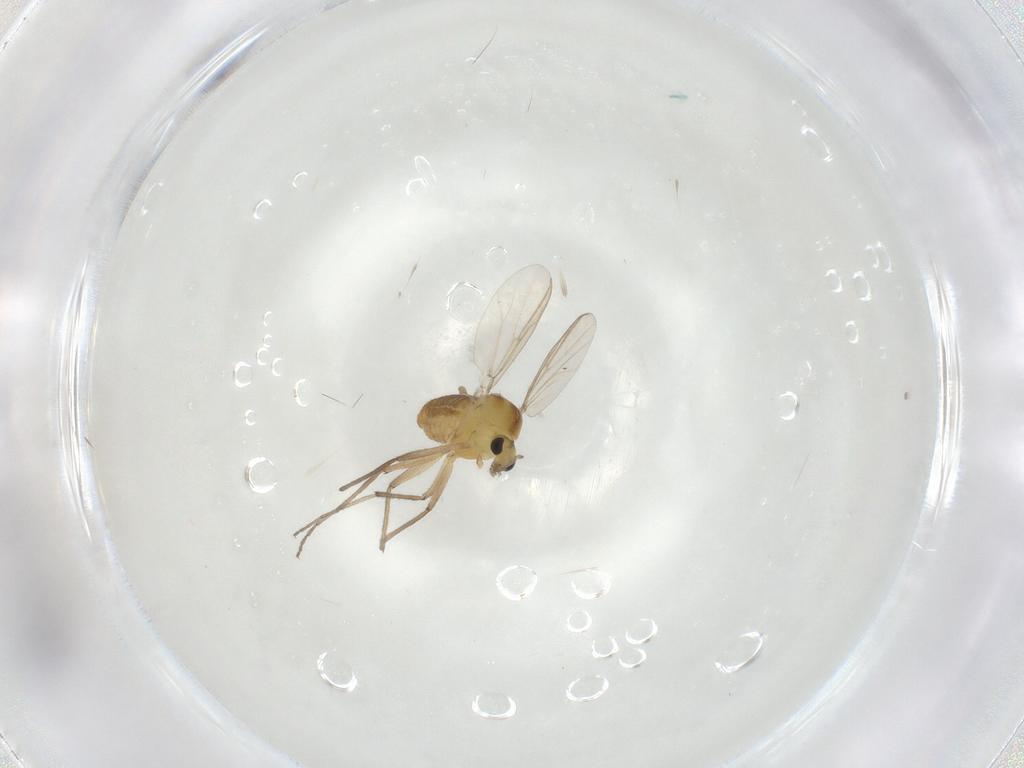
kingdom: Animalia
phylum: Arthropoda
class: Insecta
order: Diptera
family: Chironomidae
